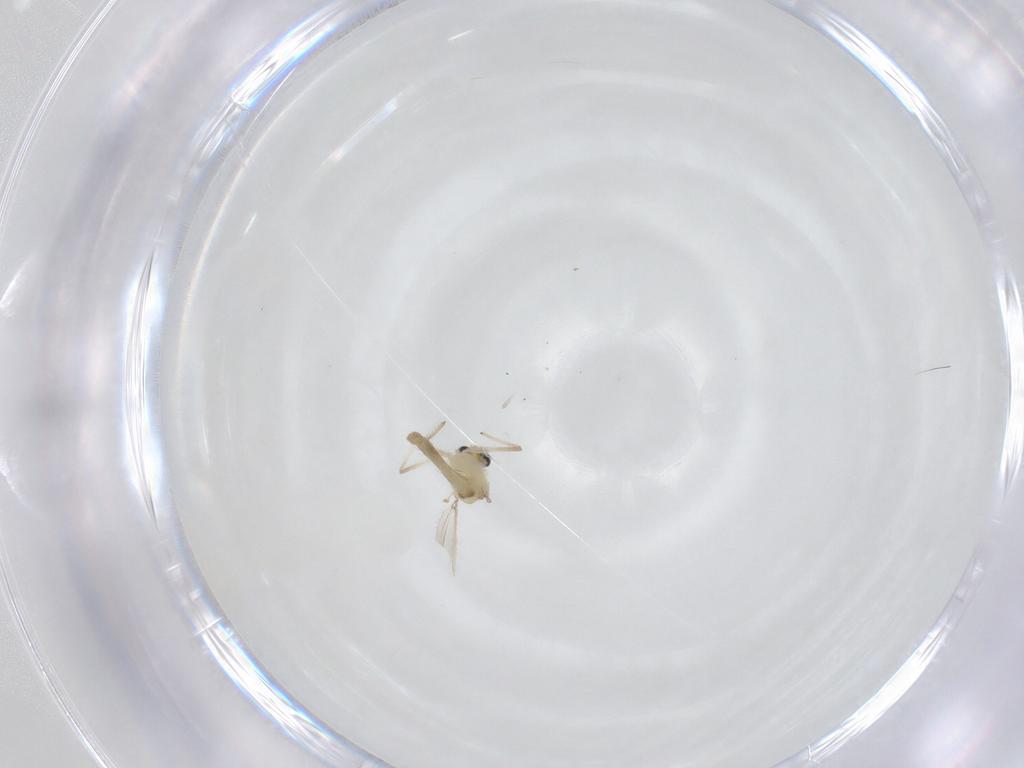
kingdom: Animalia
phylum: Arthropoda
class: Insecta
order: Diptera
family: Chironomidae
